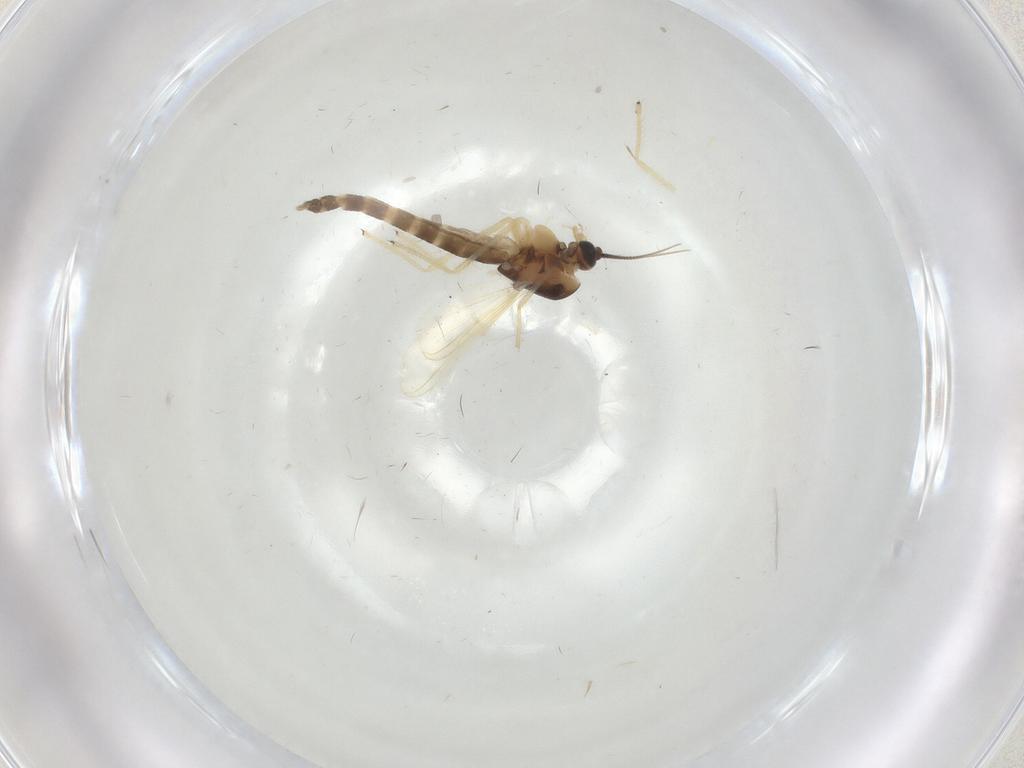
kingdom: Animalia
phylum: Arthropoda
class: Insecta
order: Diptera
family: Chironomidae
